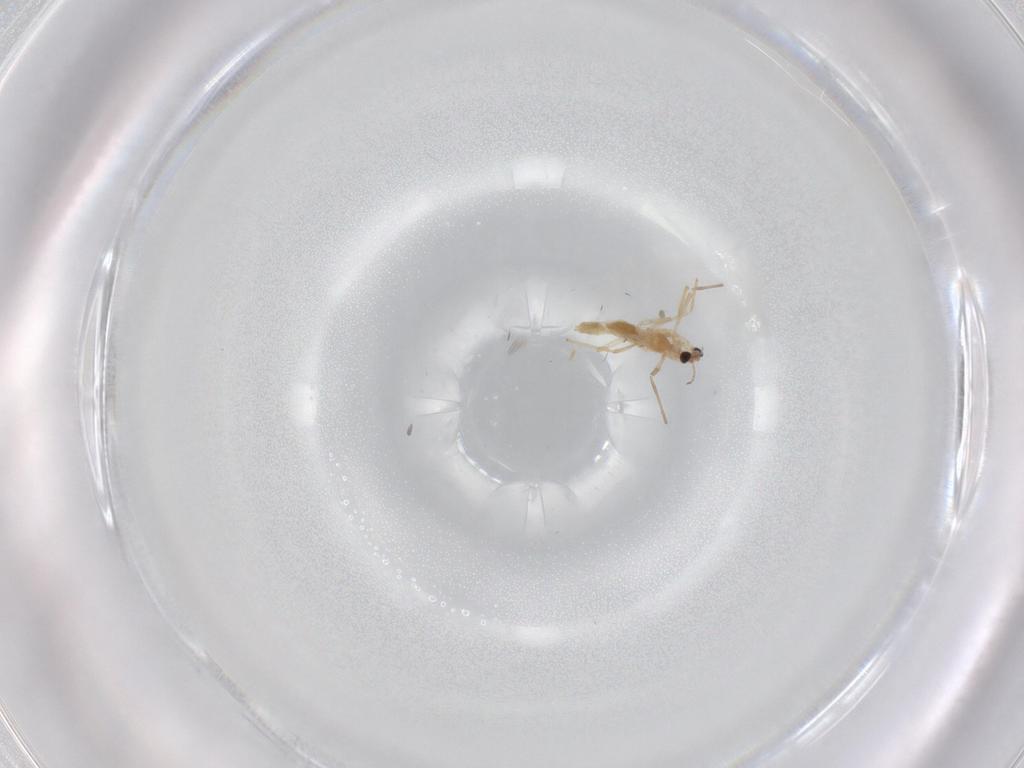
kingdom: Animalia
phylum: Arthropoda
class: Insecta
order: Diptera
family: Chironomidae
